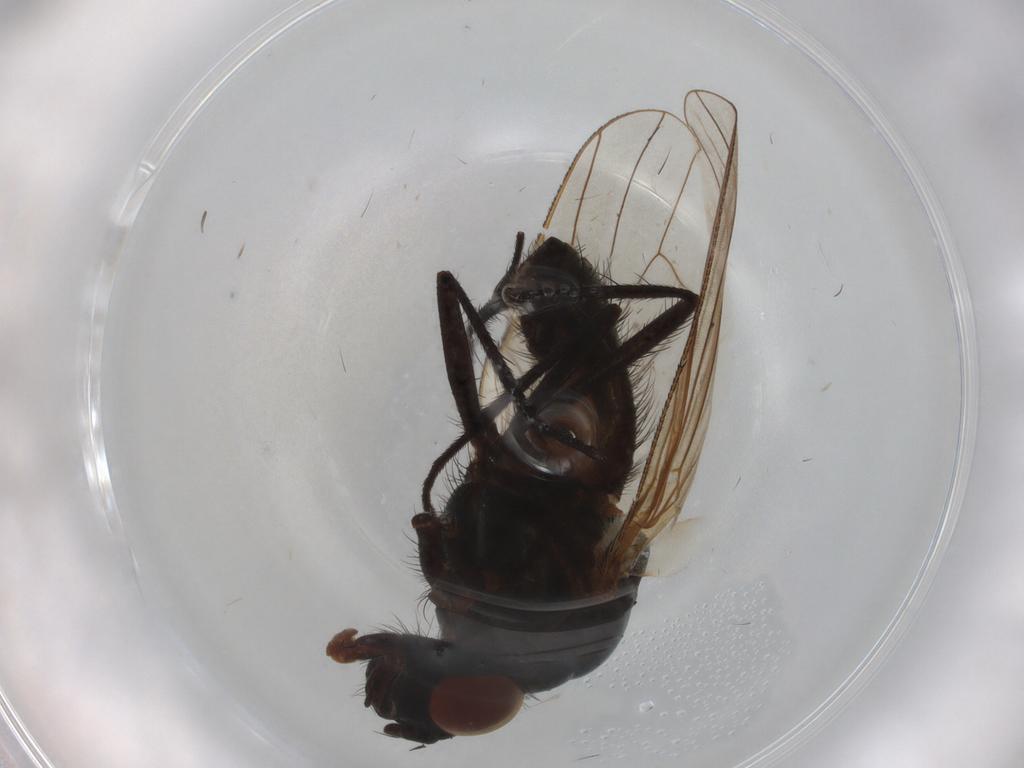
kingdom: Animalia
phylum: Arthropoda
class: Insecta
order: Diptera
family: Anthomyiidae
